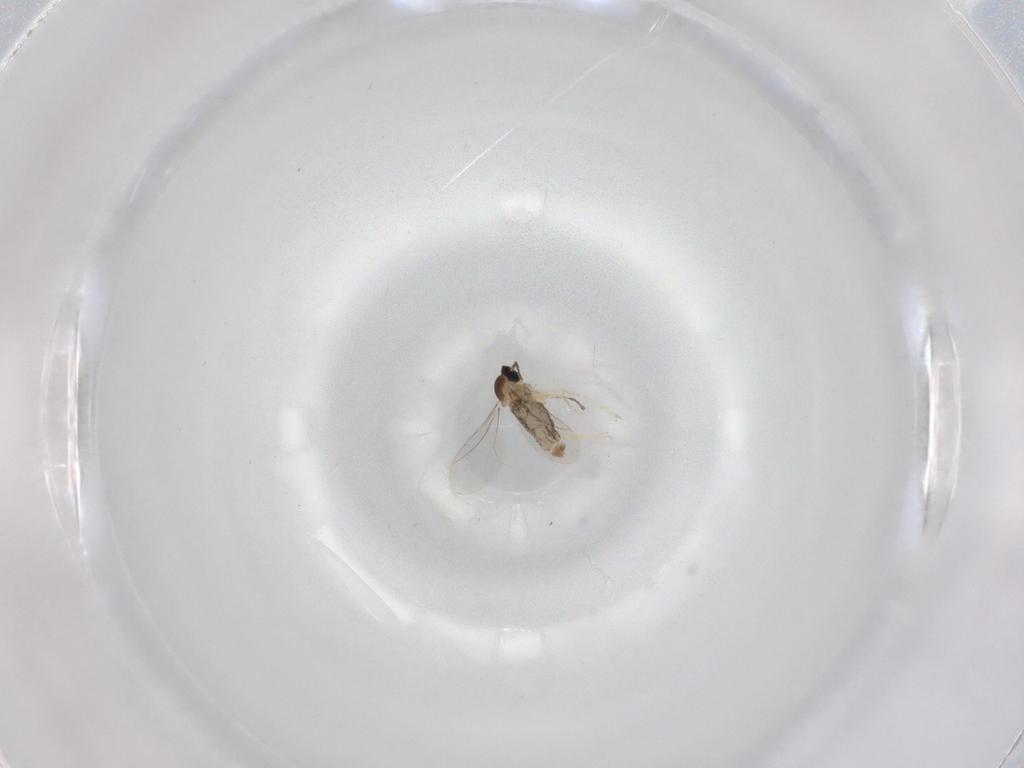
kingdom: Animalia
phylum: Arthropoda
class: Insecta
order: Diptera
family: Cecidomyiidae
